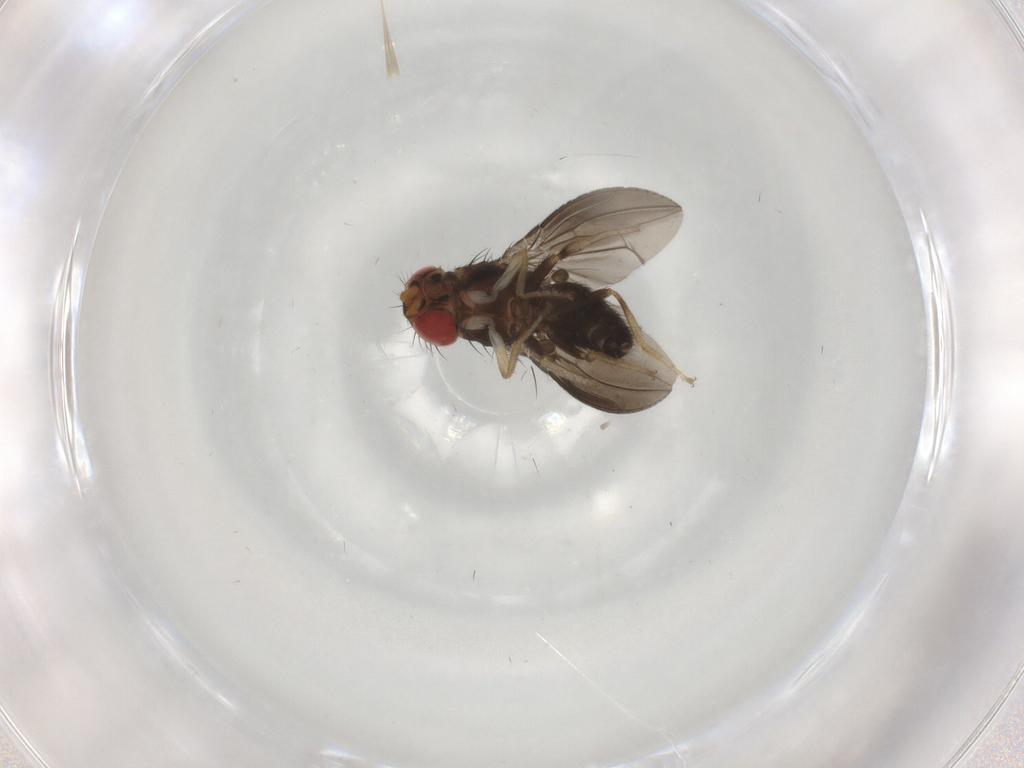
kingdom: Animalia
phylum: Arthropoda
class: Insecta
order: Diptera
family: Drosophilidae
